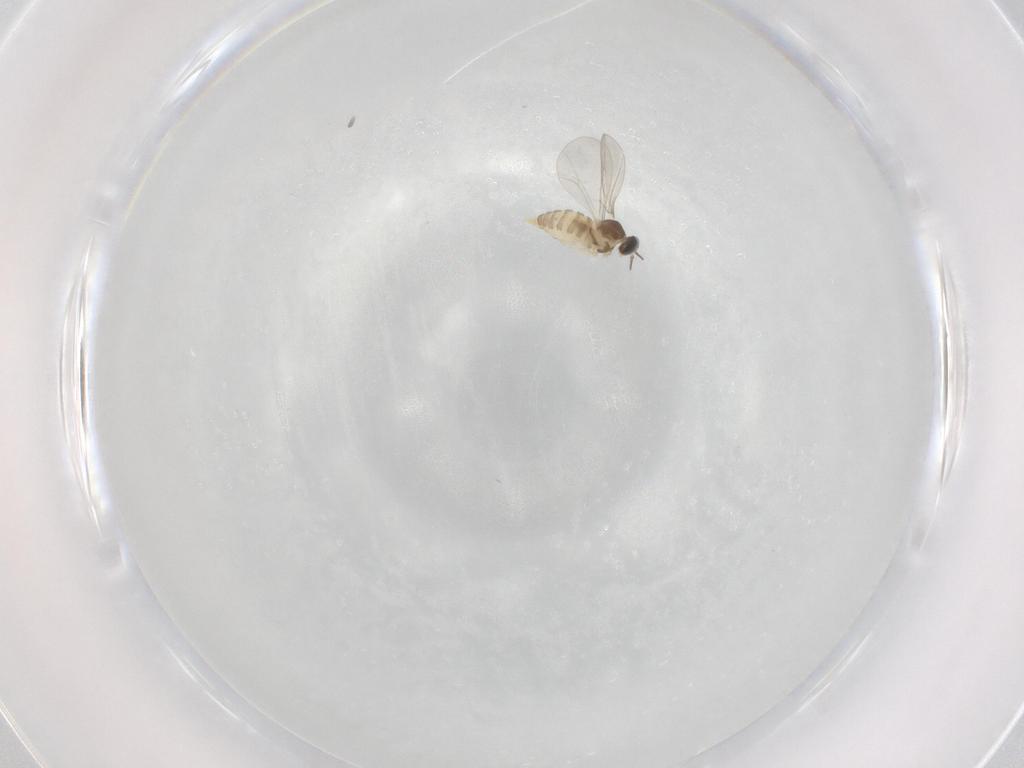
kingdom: Animalia
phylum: Arthropoda
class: Insecta
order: Diptera
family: Cecidomyiidae
